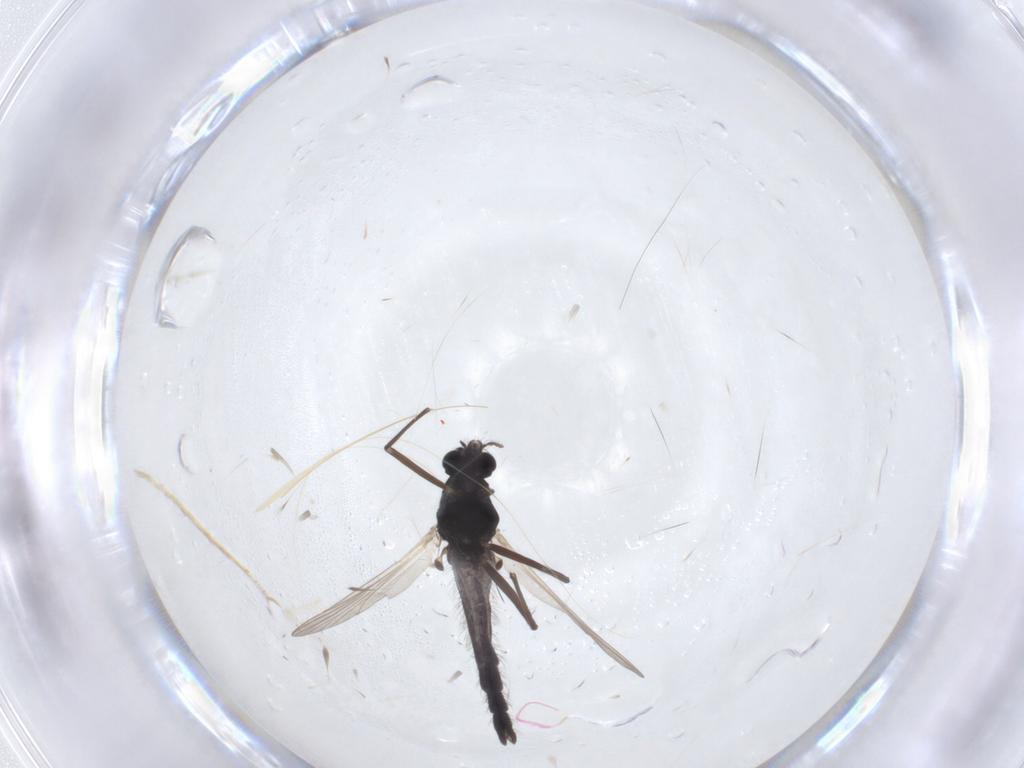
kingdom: Animalia
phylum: Arthropoda
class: Insecta
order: Diptera
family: Chironomidae
